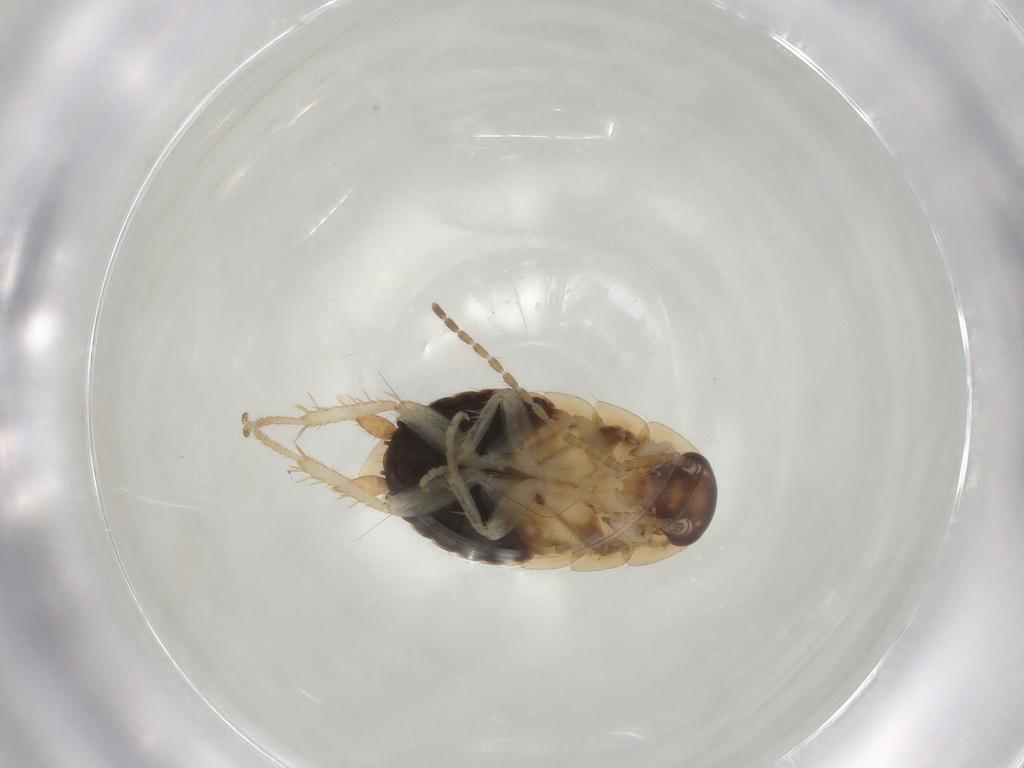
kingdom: Animalia
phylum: Arthropoda
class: Insecta
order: Blattodea
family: Ectobiidae
